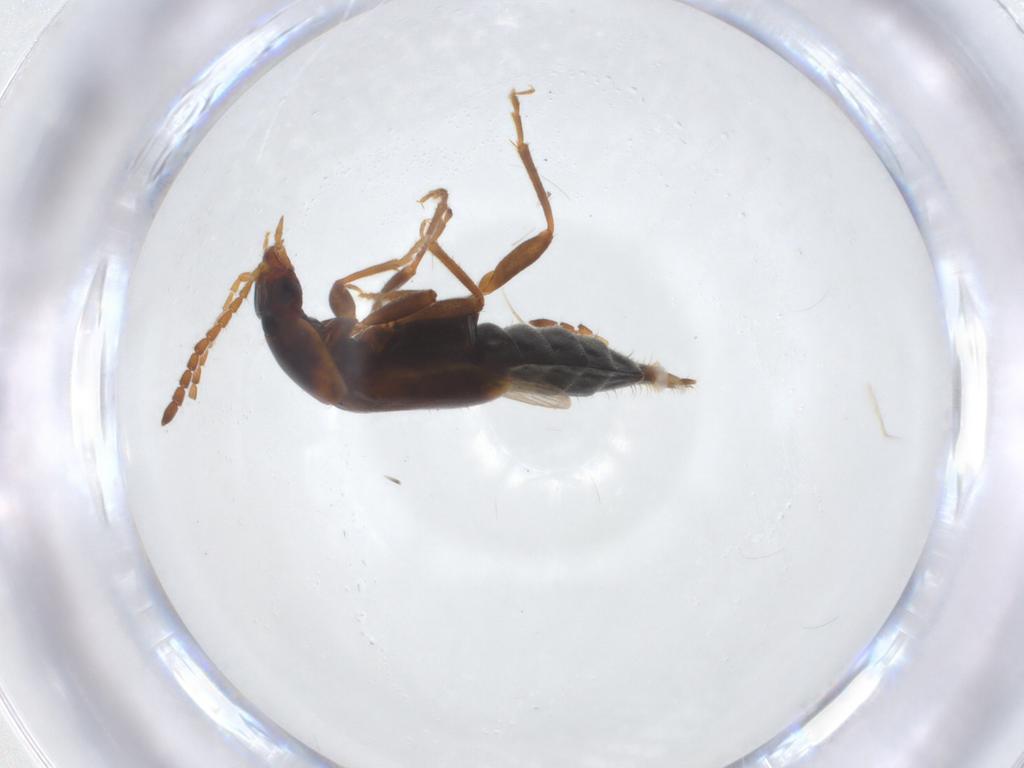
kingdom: Animalia
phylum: Arthropoda
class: Insecta
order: Coleoptera
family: Staphylinidae
